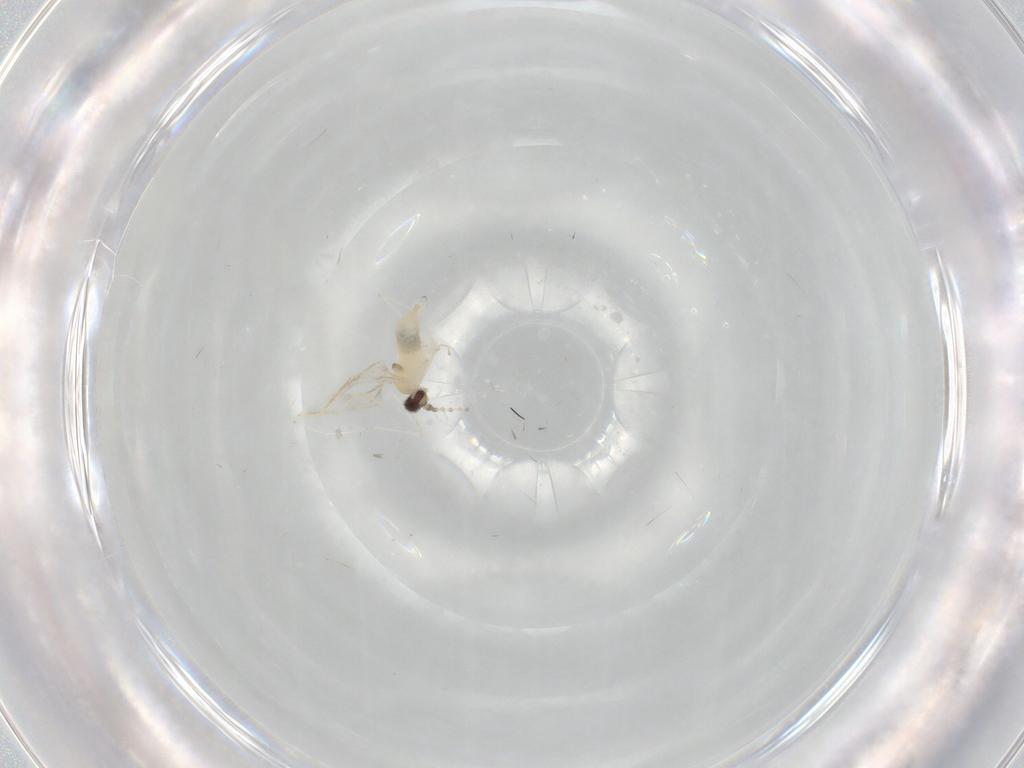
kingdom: Animalia
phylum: Arthropoda
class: Insecta
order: Diptera
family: Cecidomyiidae
